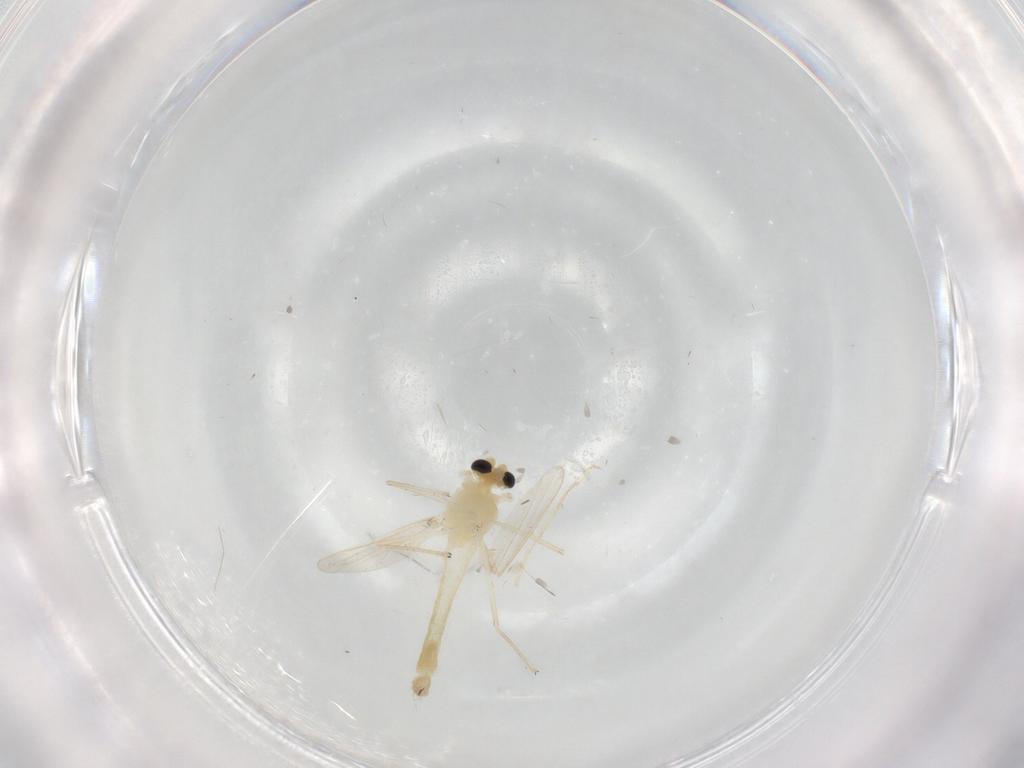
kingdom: Animalia
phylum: Arthropoda
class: Insecta
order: Diptera
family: Chironomidae
